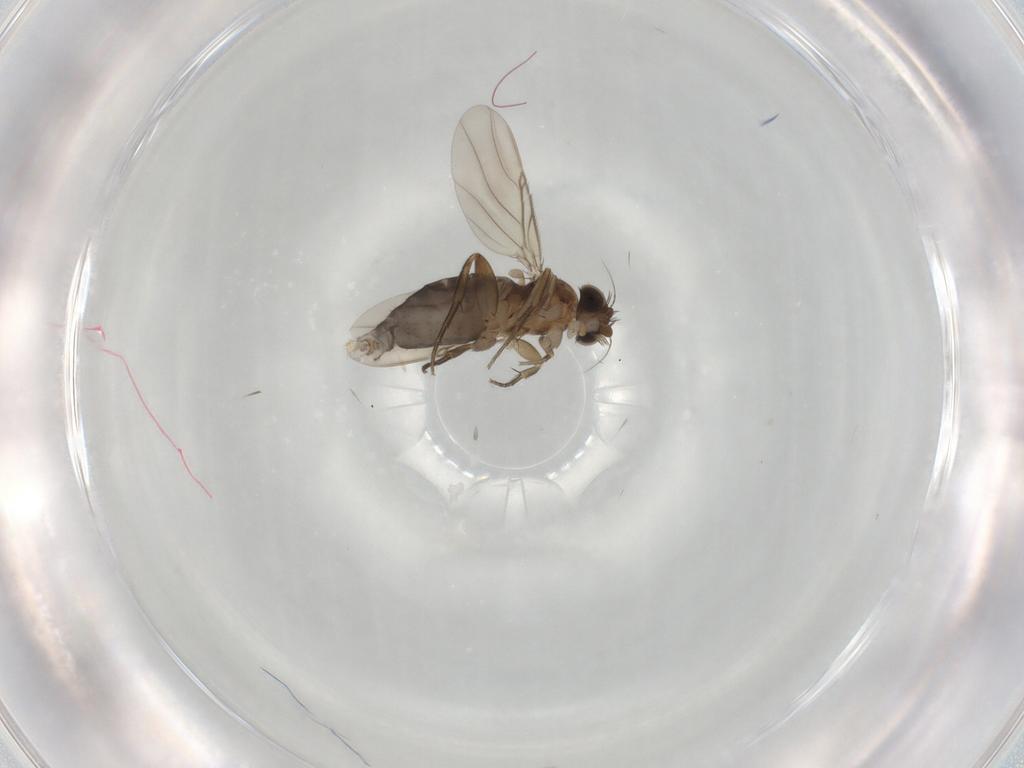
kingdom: Animalia
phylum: Arthropoda
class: Insecta
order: Diptera
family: Phoridae
